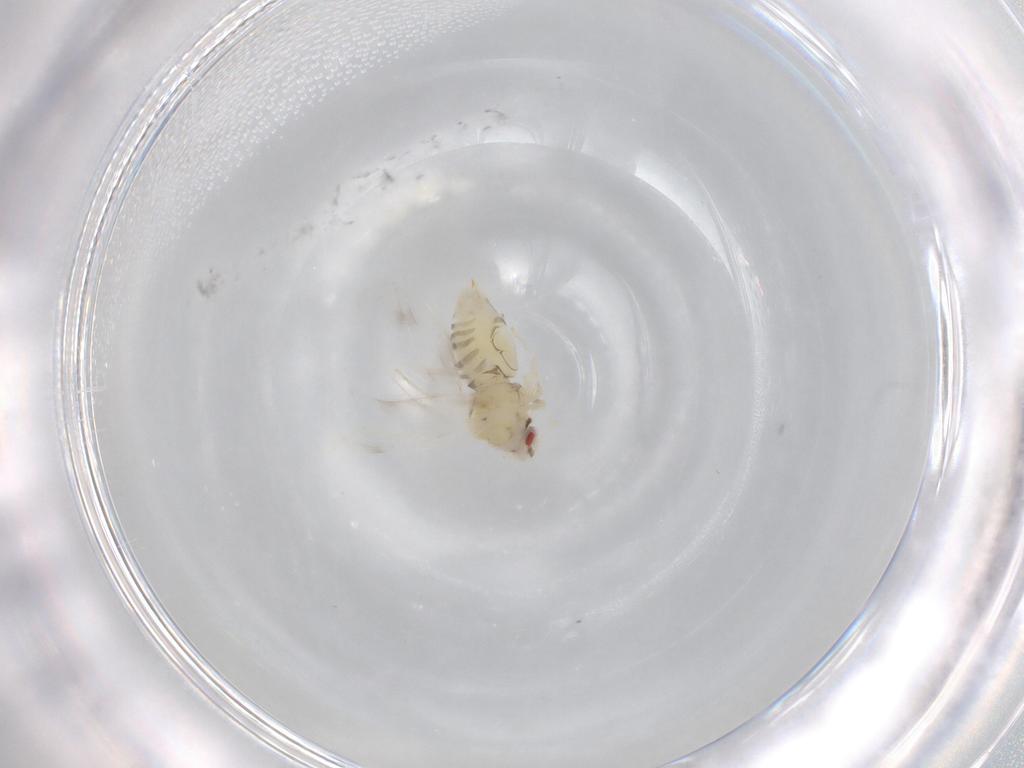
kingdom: Animalia
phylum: Arthropoda
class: Insecta
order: Hemiptera
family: Aleyrodidae
